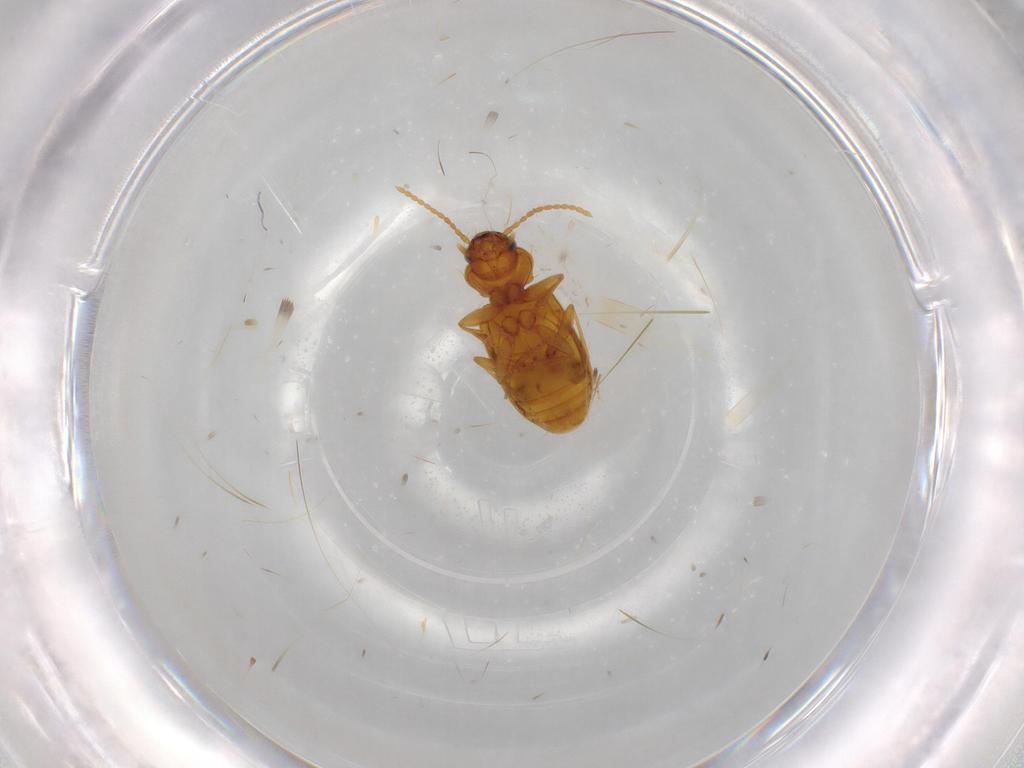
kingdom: Animalia
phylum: Arthropoda
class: Insecta
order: Coleoptera
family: Carabidae
